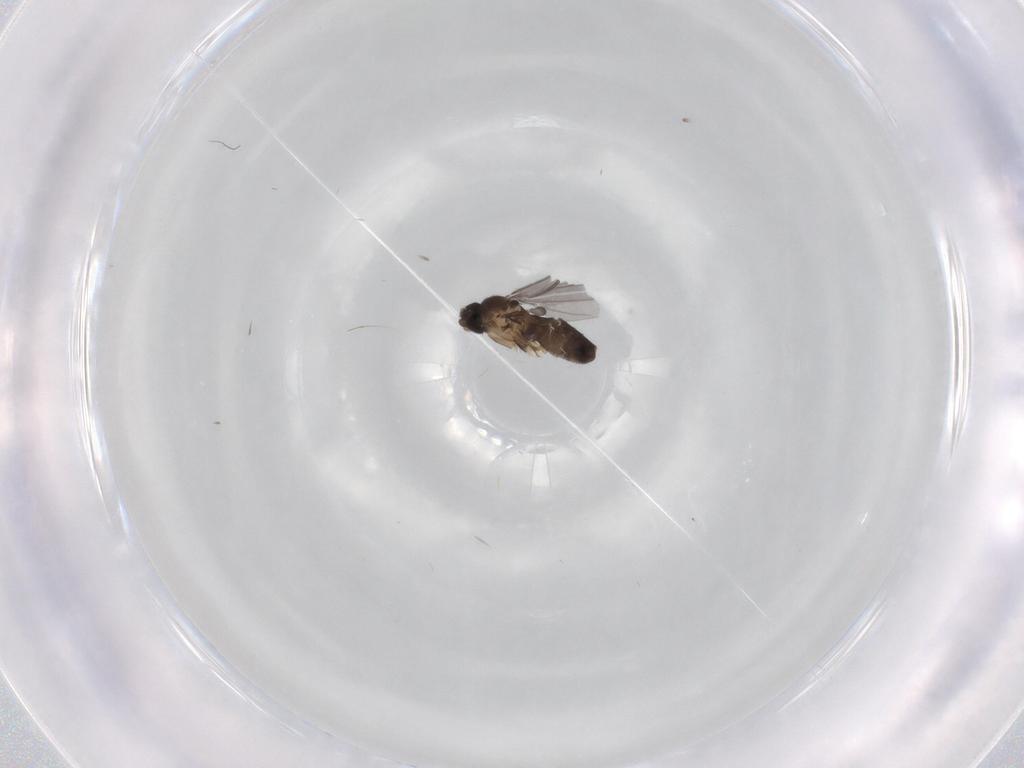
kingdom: Animalia
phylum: Arthropoda
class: Insecta
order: Diptera
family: Phoridae
